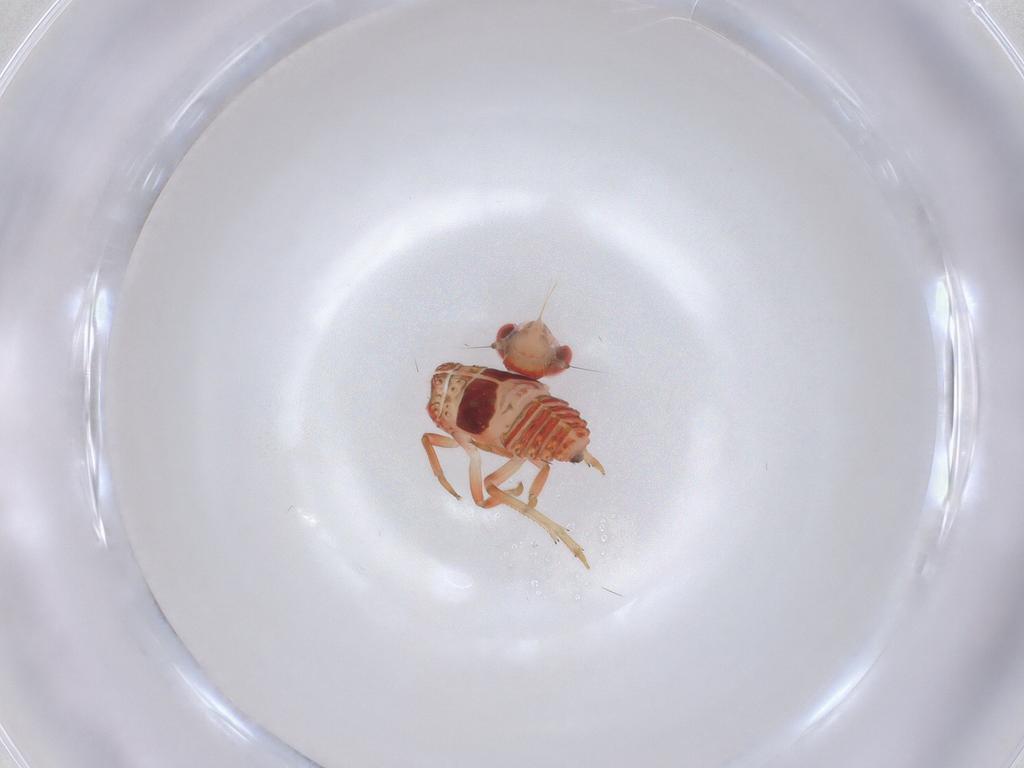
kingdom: Animalia
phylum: Arthropoda
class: Insecta
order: Hemiptera
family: Issidae
